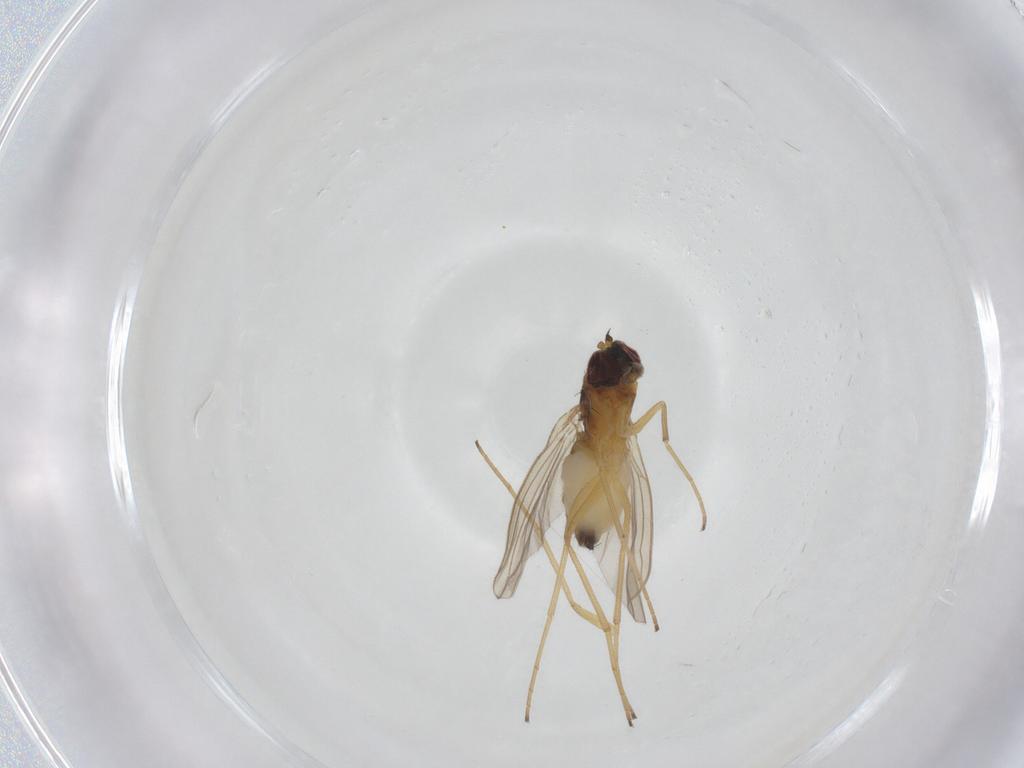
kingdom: Animalia
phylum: Arthropoda
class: Insecta
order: Diptera
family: Dolichopodidae
